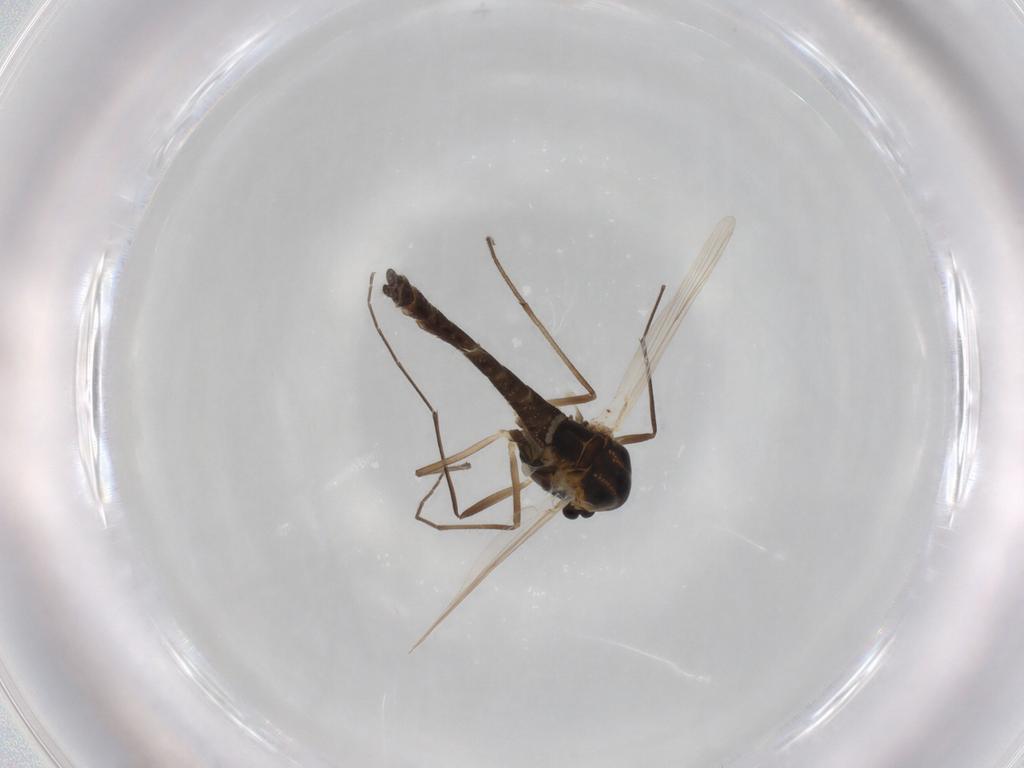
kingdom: Animalia
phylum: Arthropoda
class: Insecta
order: Diptera
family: Chironomidae
